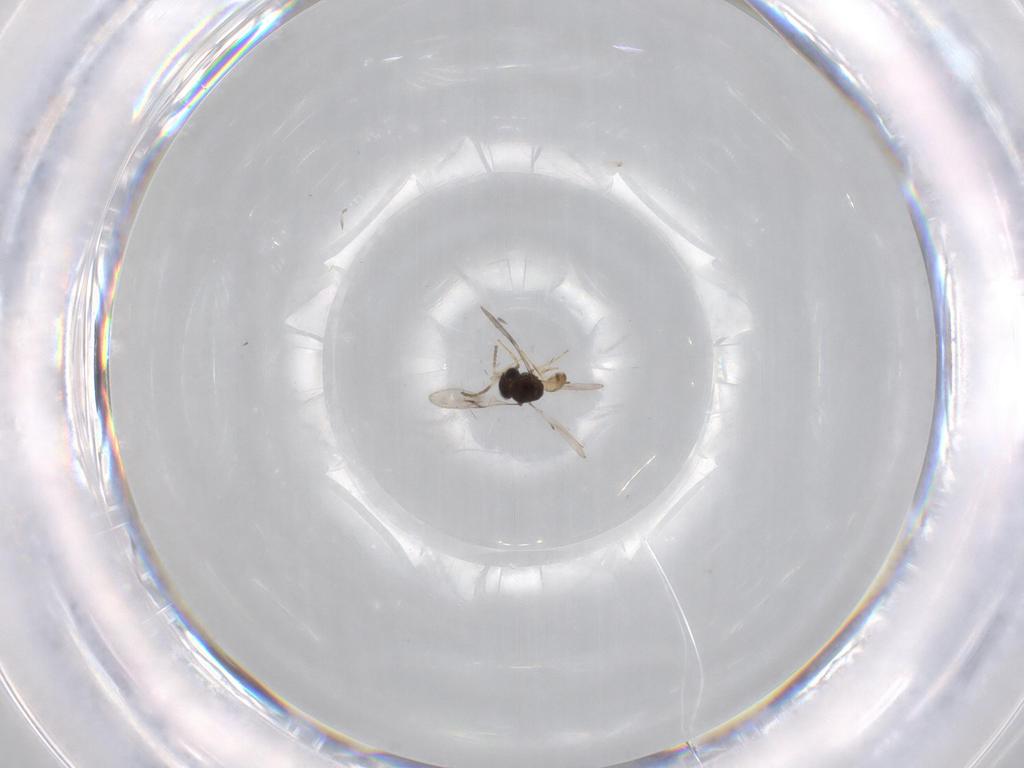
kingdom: Animalia
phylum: Arthropoda
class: Insecta
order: Hymenoptera
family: Scelionidae
